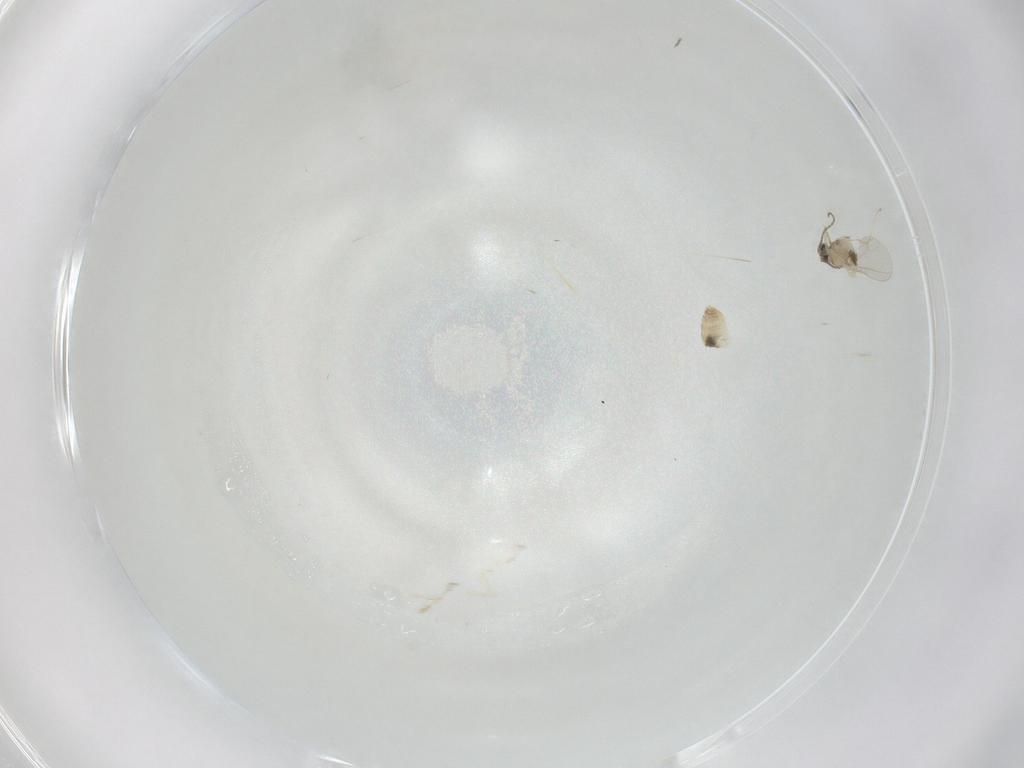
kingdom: Animalia
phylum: Arthropoda
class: Insecta
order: Diptera
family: Cecidomyiidae
